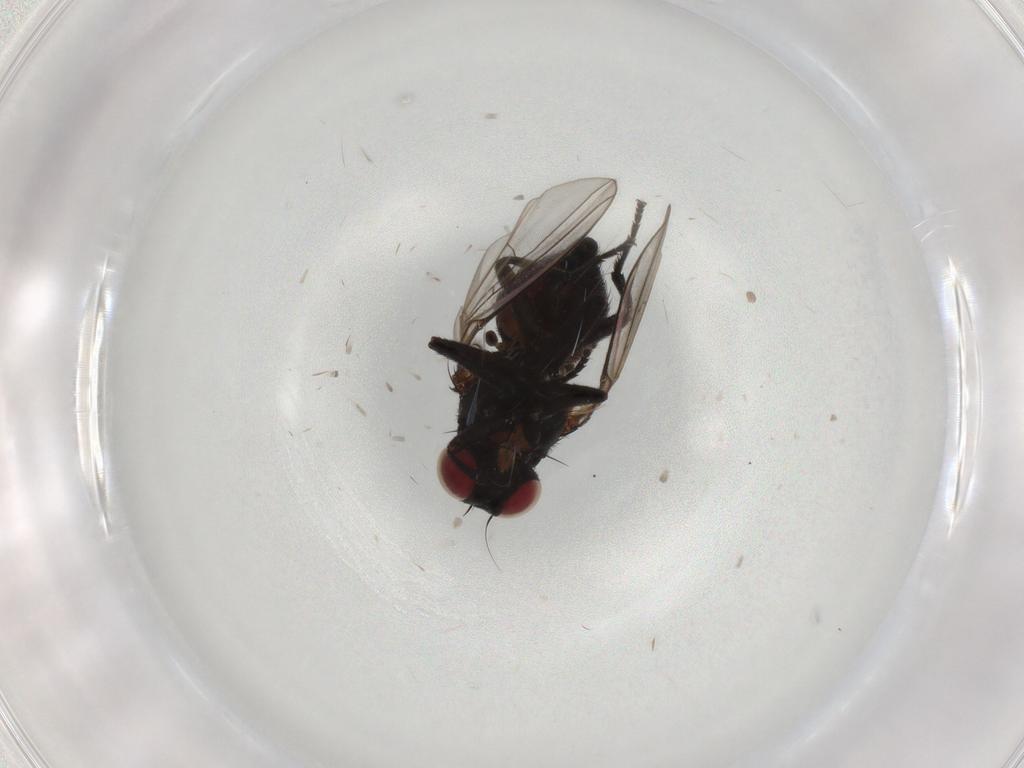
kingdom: Animalia
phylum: Arthropoda
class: Insecta
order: Diptera
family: Agromyzidae
